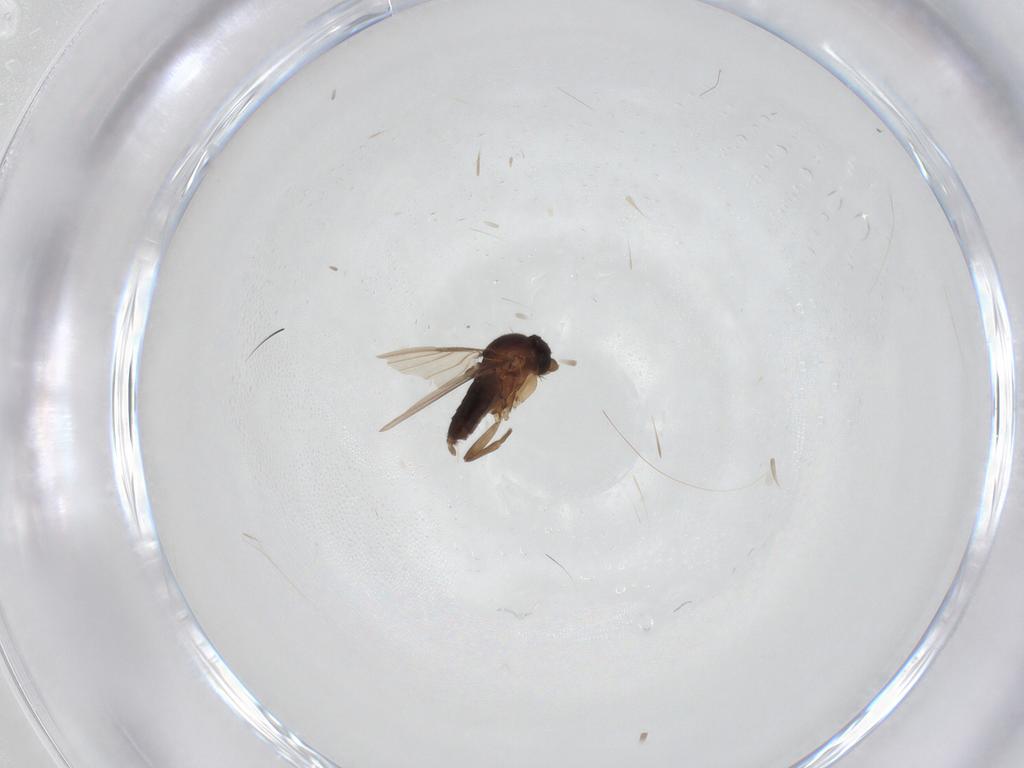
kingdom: Animalia
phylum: Arthropoda
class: Insecta
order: Diptera
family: Phoridae
